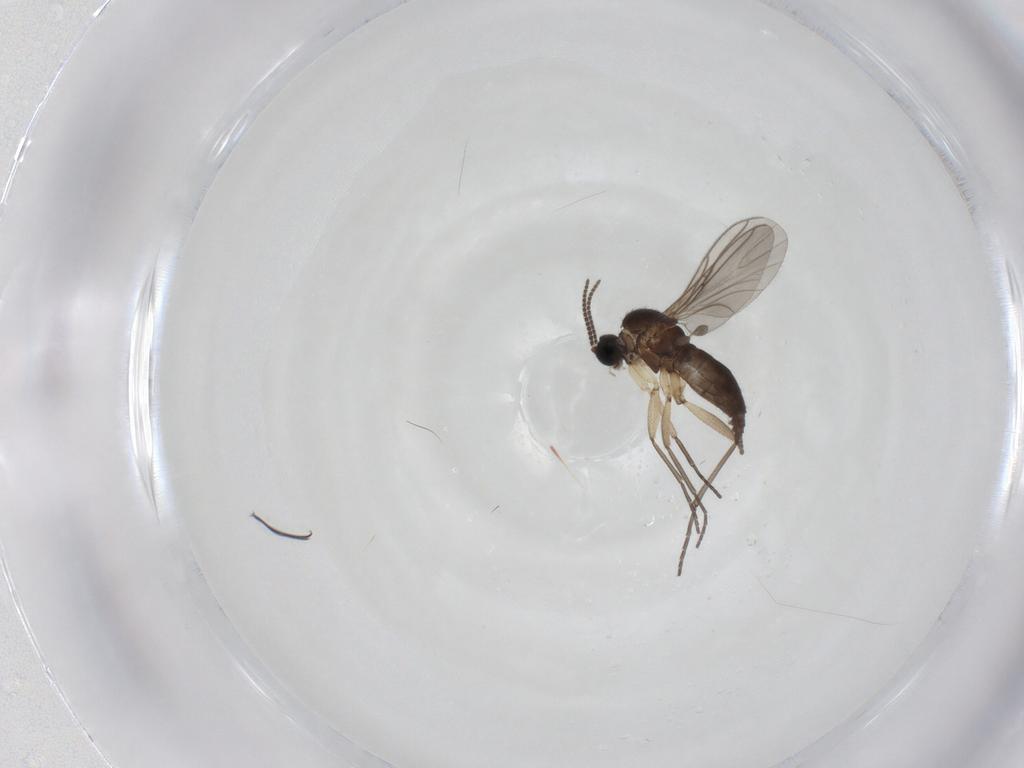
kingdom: Animalia
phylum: Arthropoda
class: Insecta
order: Diptera
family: Sciaridae
